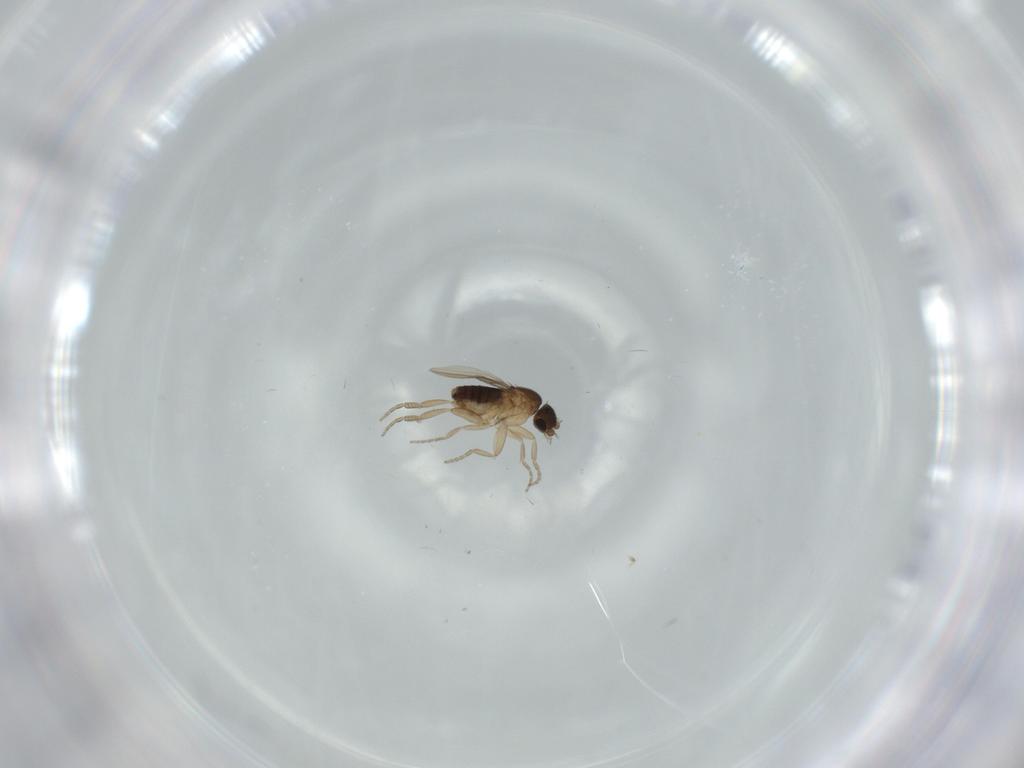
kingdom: Animalia
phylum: Arthropoda
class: Insecta
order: Diptera
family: Phoridae
